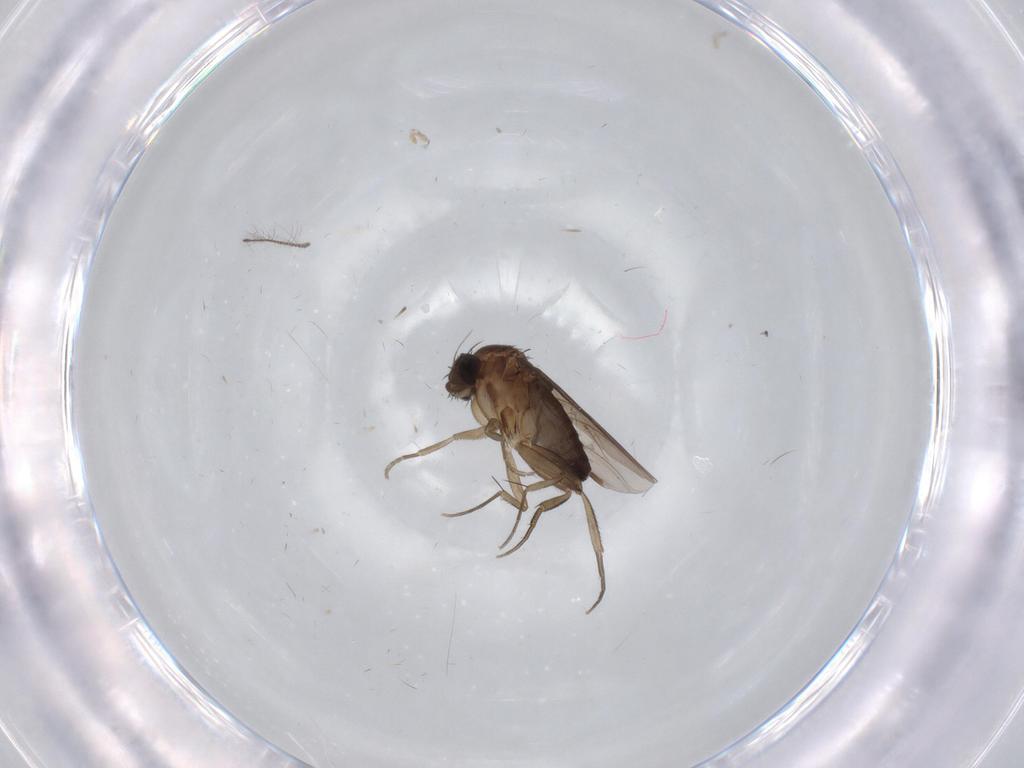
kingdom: Animalia
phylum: Arthropoda
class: Insecta
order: Diptera
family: Phoridae
